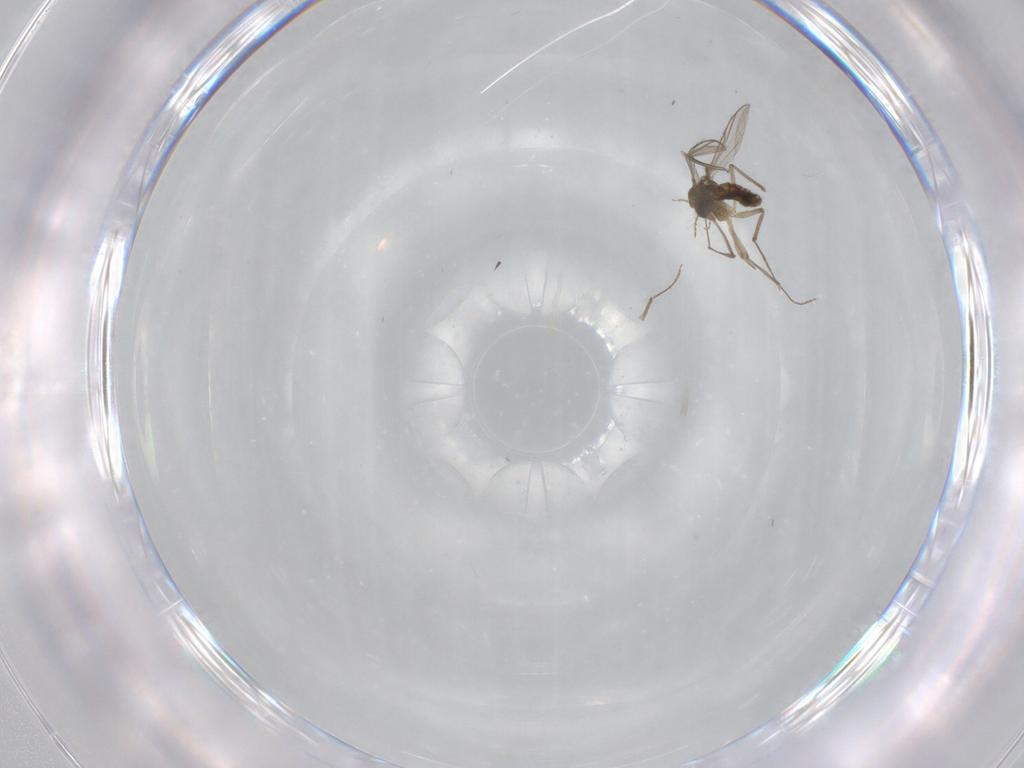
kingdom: Animalia
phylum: Arthropoda
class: Insecta
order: Diptera
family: Chironomidae
